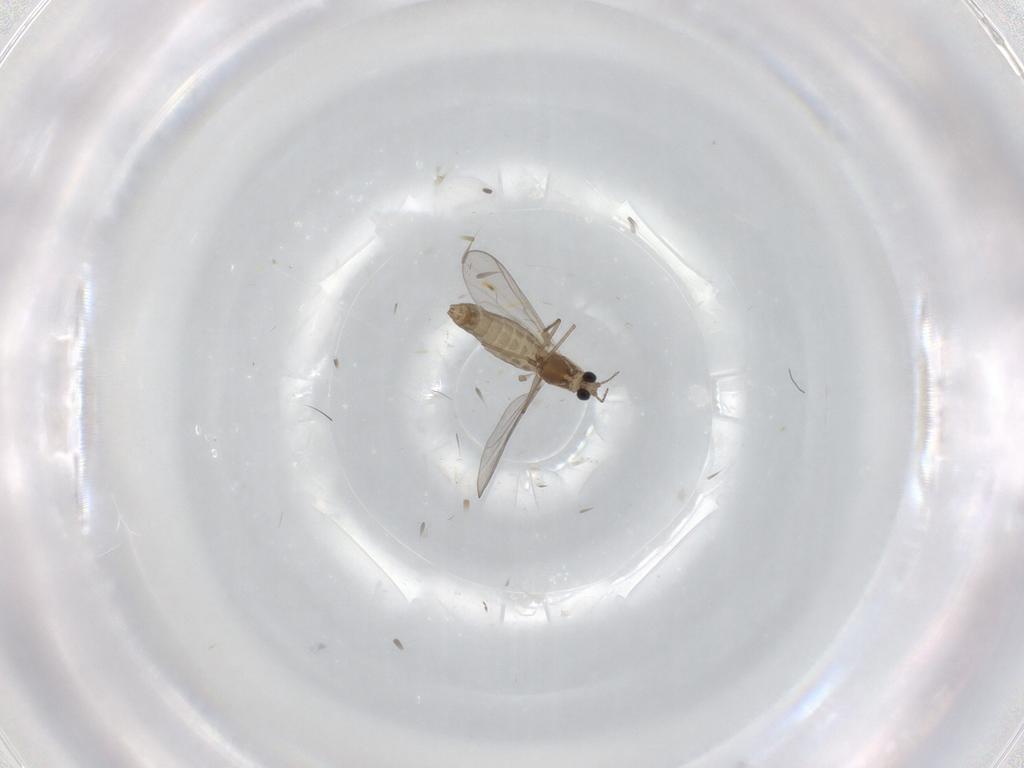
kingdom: Animalia
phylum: Arthropoda
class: Insecta
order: Diptera
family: Chironomidae
